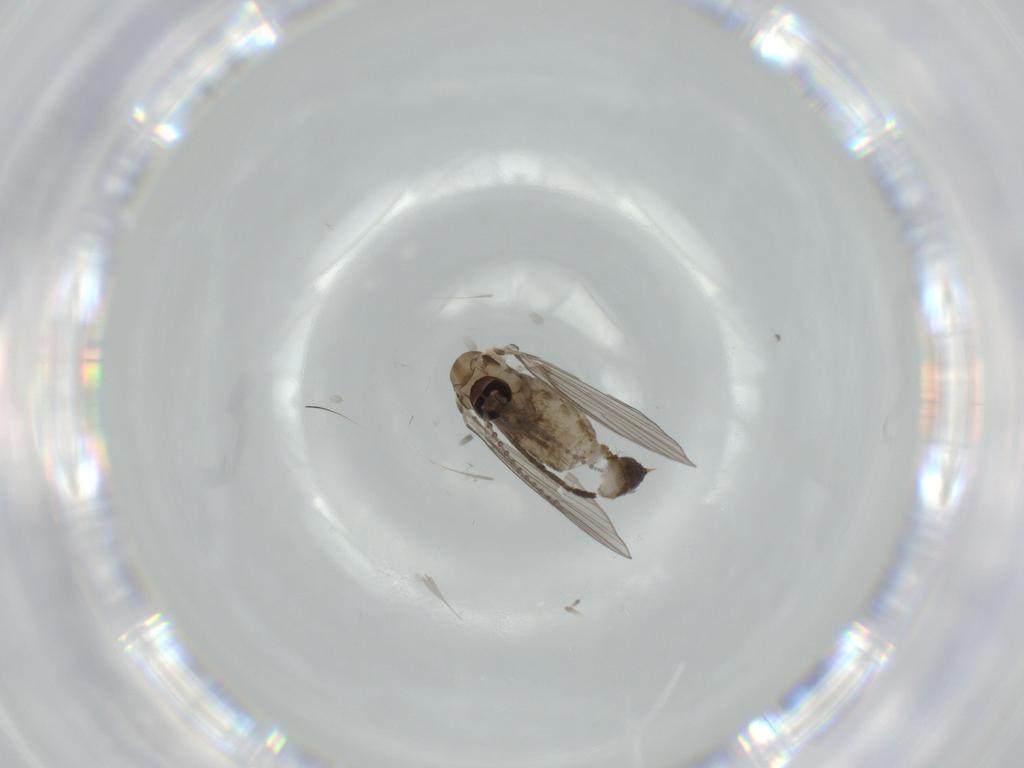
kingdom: Animalia
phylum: Arthropoda
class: Insecta
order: Diptera
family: Cecidomyiidae
